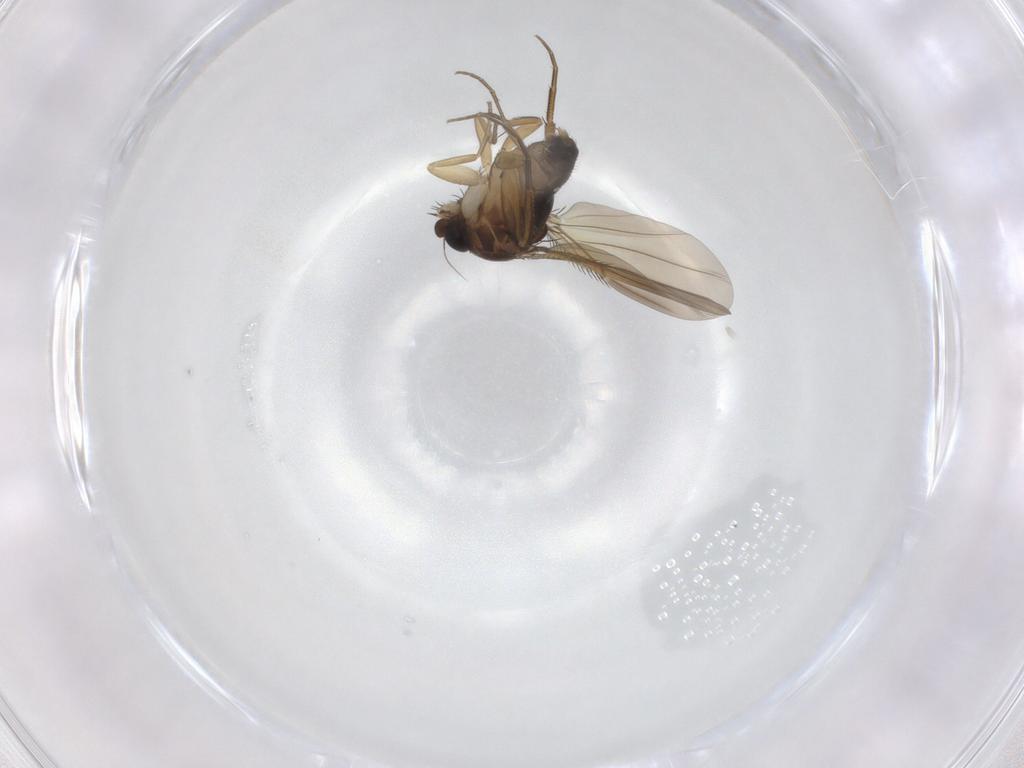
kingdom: Animalia
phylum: Arthropoda
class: Insecta
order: Diptera
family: Phoridae
